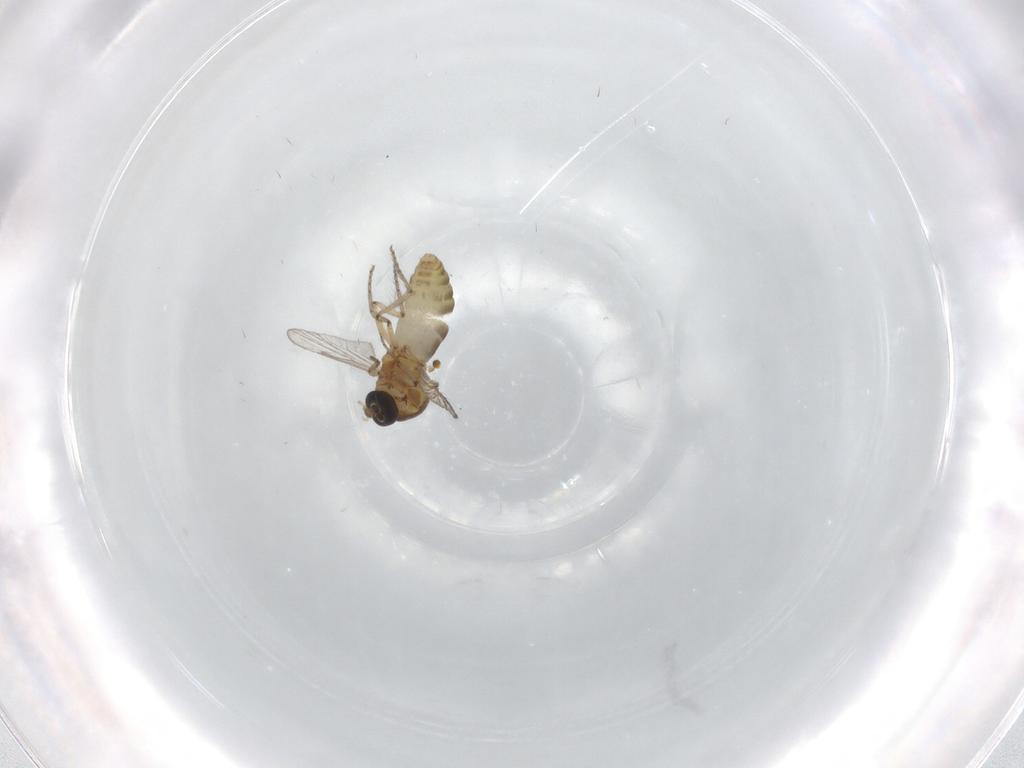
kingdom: Animalia
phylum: Arthropoda
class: Insecta
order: Diptera
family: Ceratopogonidae
